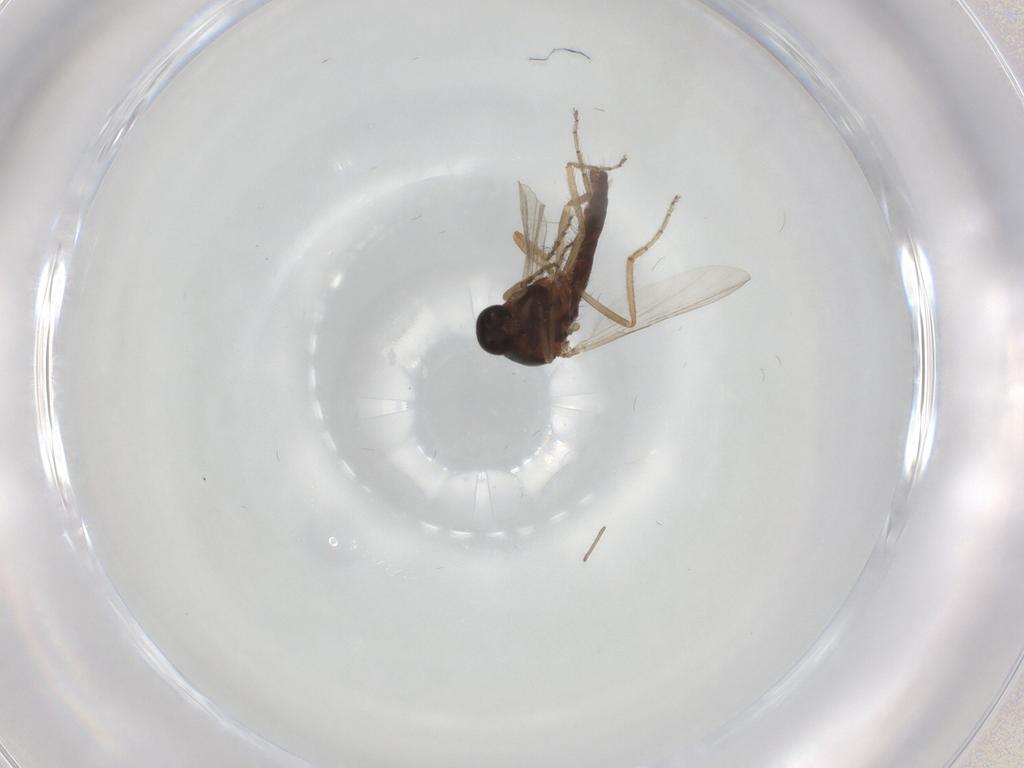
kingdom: Animalia
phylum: Arthropoda
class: Insecta
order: Diptera
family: Ceratopogonidae
